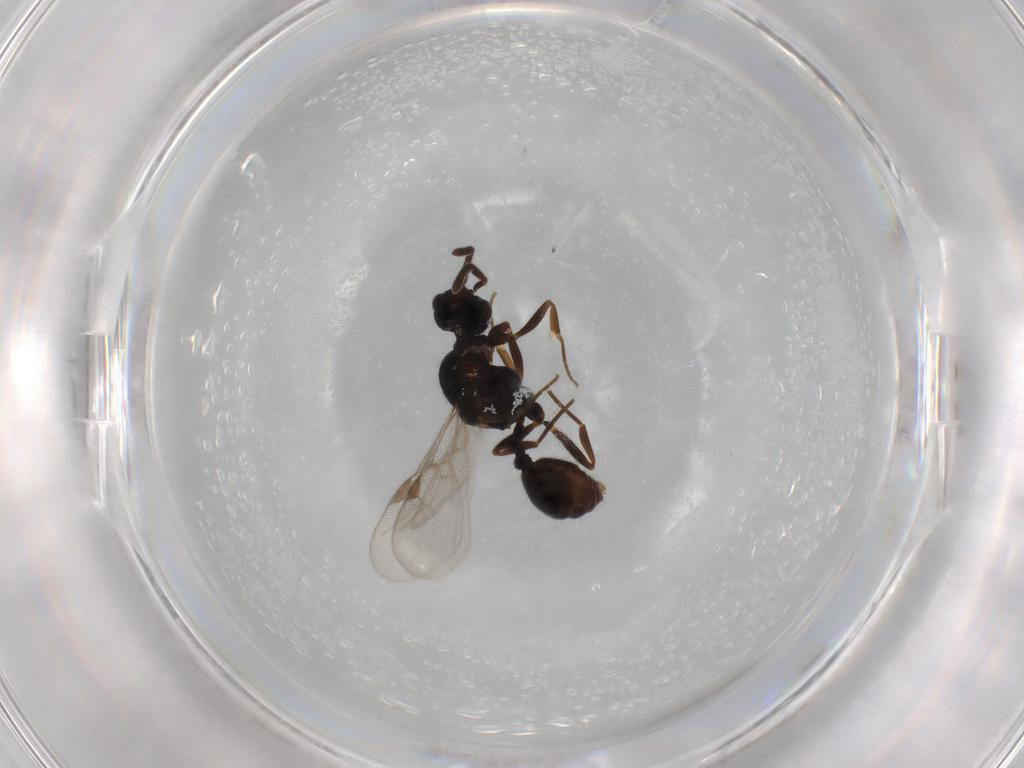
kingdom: Animalia
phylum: Arthropoda
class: Insecta
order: Hymenoptera
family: Formicidae
